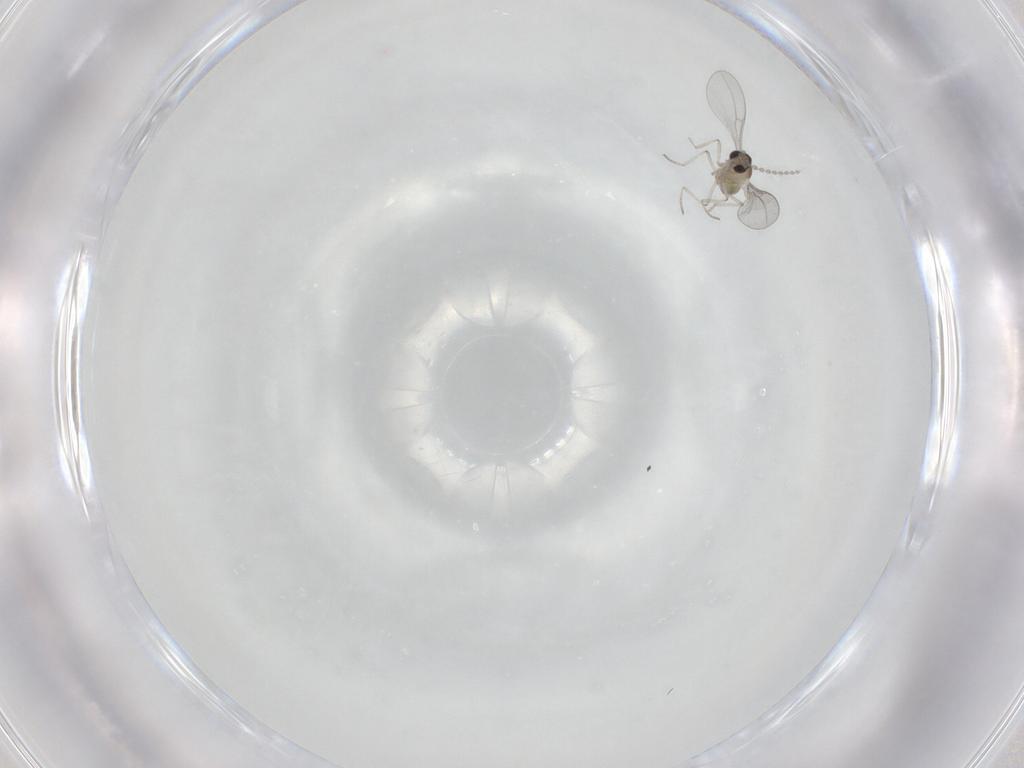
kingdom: Animalia
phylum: Arthropoda
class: Insecta
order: Diptera
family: Cecidomyiidae
